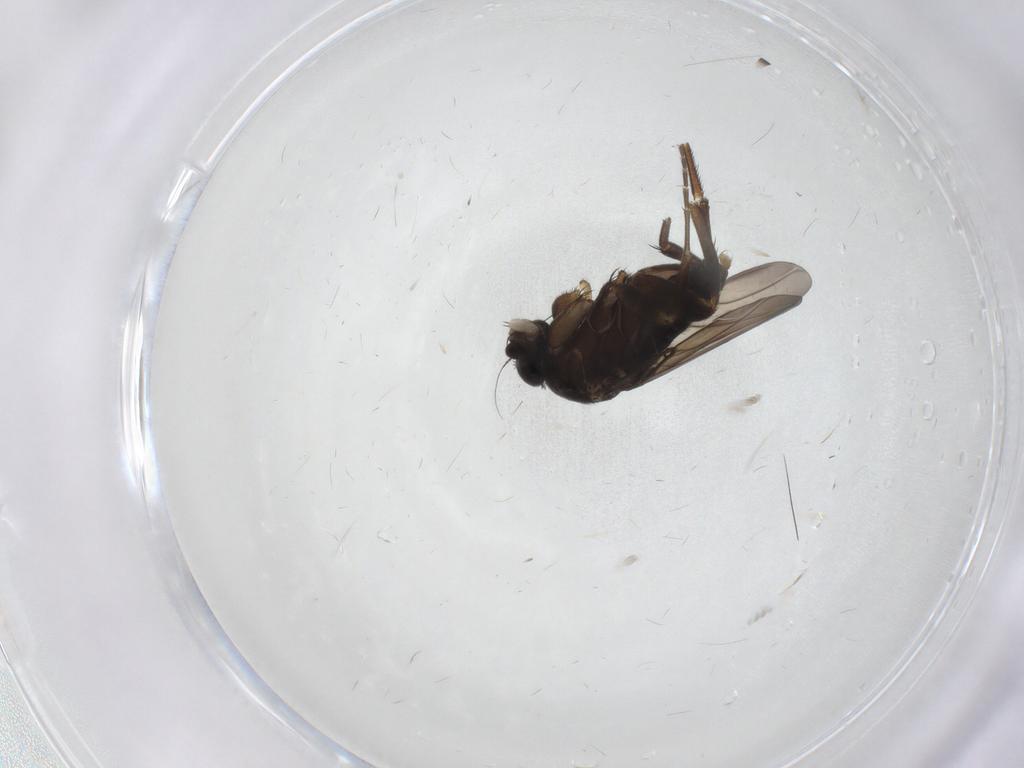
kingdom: Animalia
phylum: Arthropoda
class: Insecta
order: Diptera
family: Phoridae
